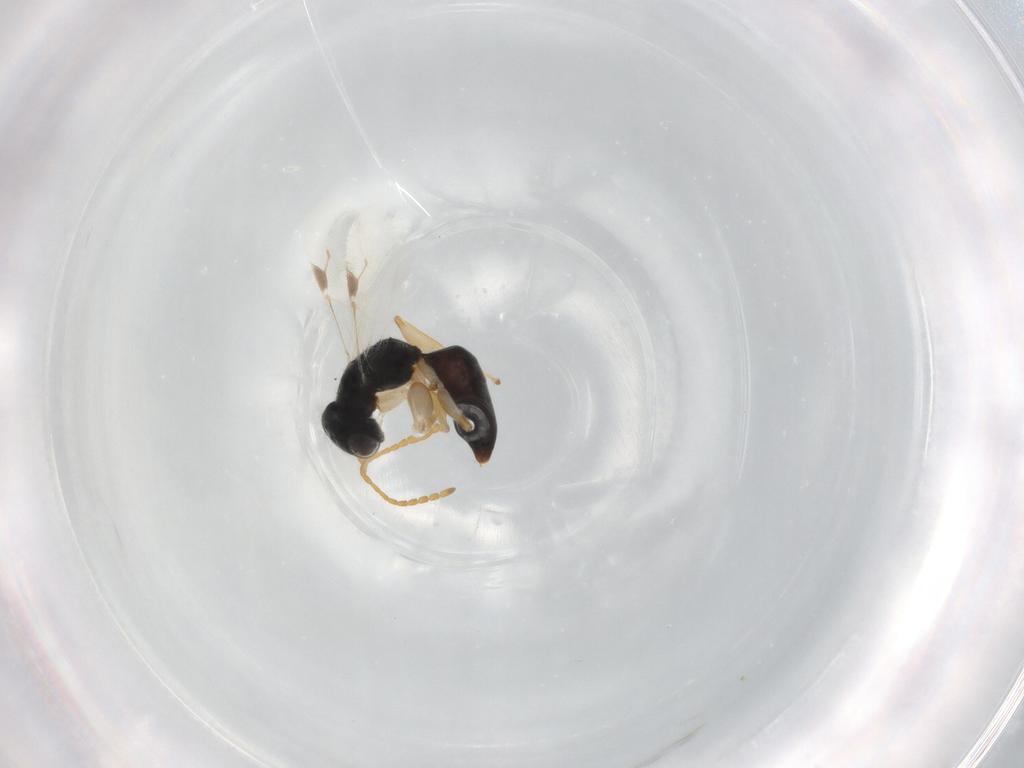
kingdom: Animalia
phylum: Arthropoda
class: Insecta
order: Hymenoptera
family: Dryinidae
